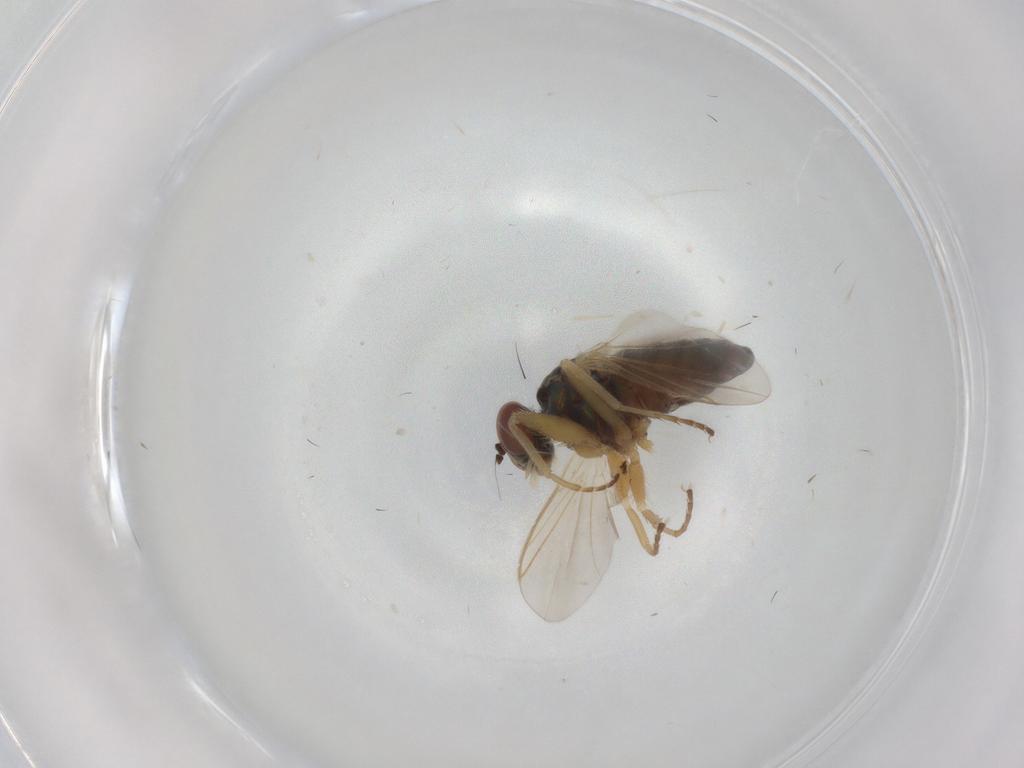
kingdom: Animalia
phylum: Arthropoda
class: Insecta
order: Diptera
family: Dolichopodidae
